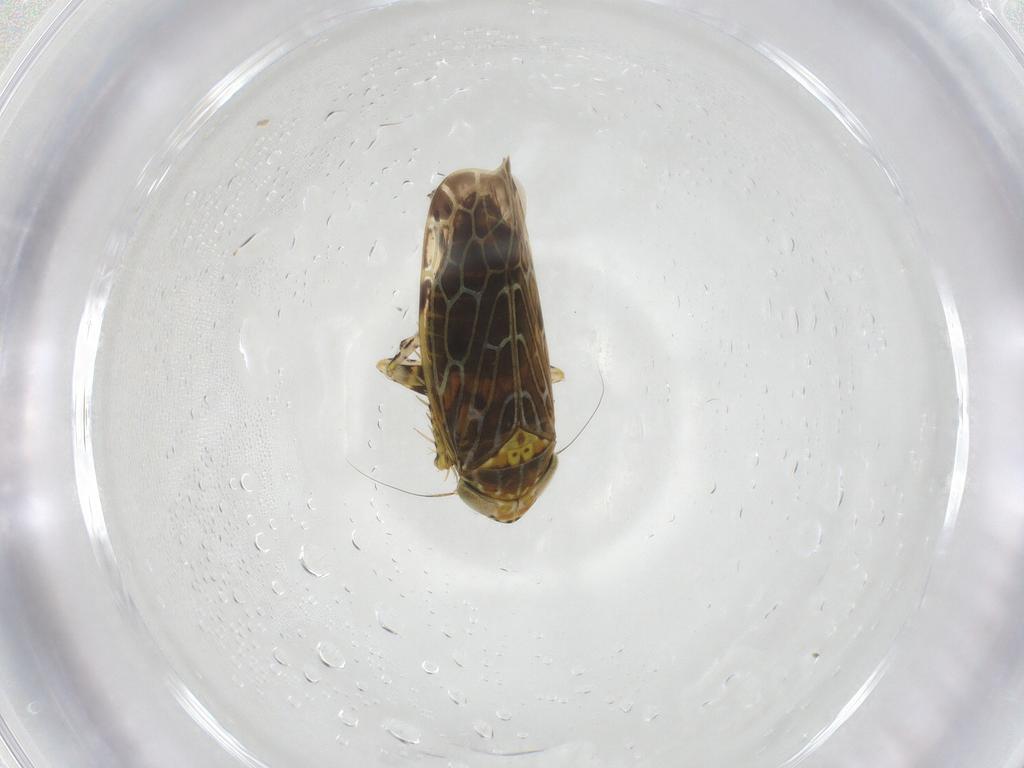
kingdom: Animalia
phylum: Arthropoda
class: Insecta
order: Hemiptera
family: Cicadellidae
